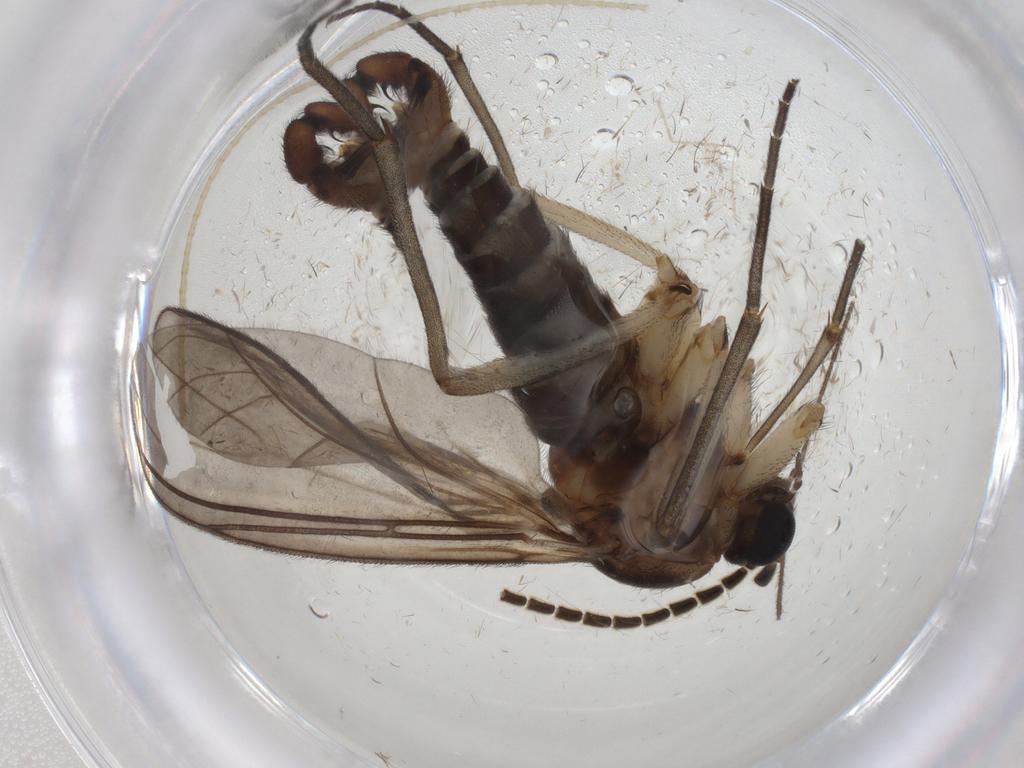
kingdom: Animalia
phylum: Arthropoda
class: Insecta
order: Diptera
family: Sciaridae
